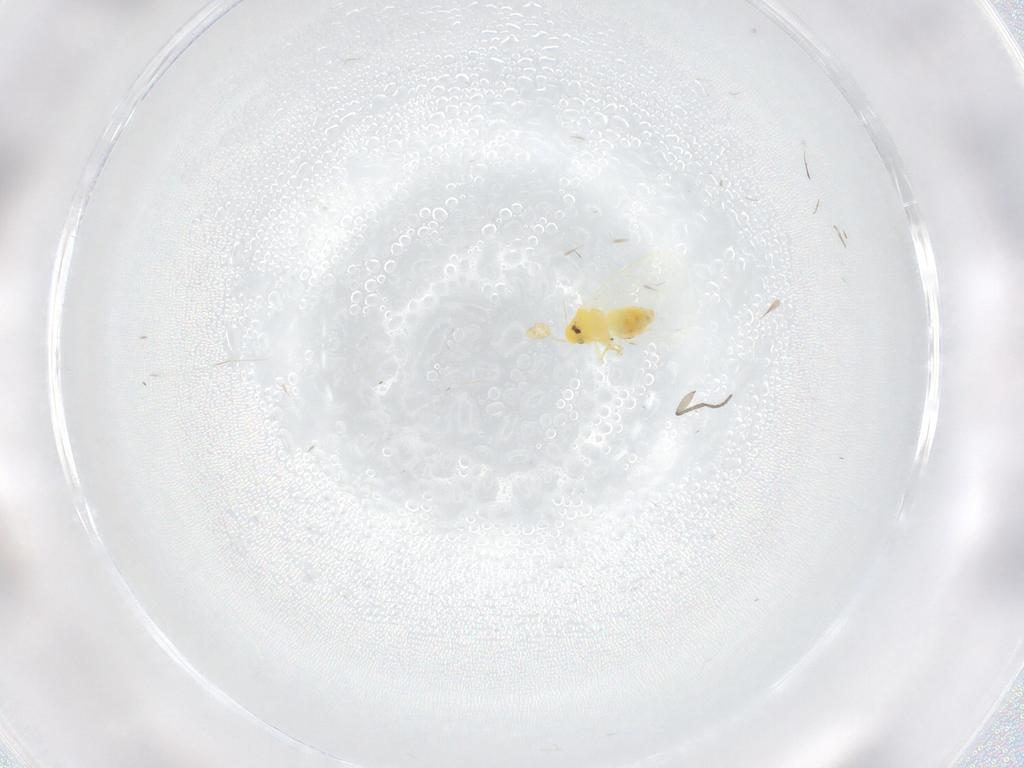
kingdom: Animalia
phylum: Arthropoda
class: Insecta
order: Hemiptera
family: Aleyrodidae
